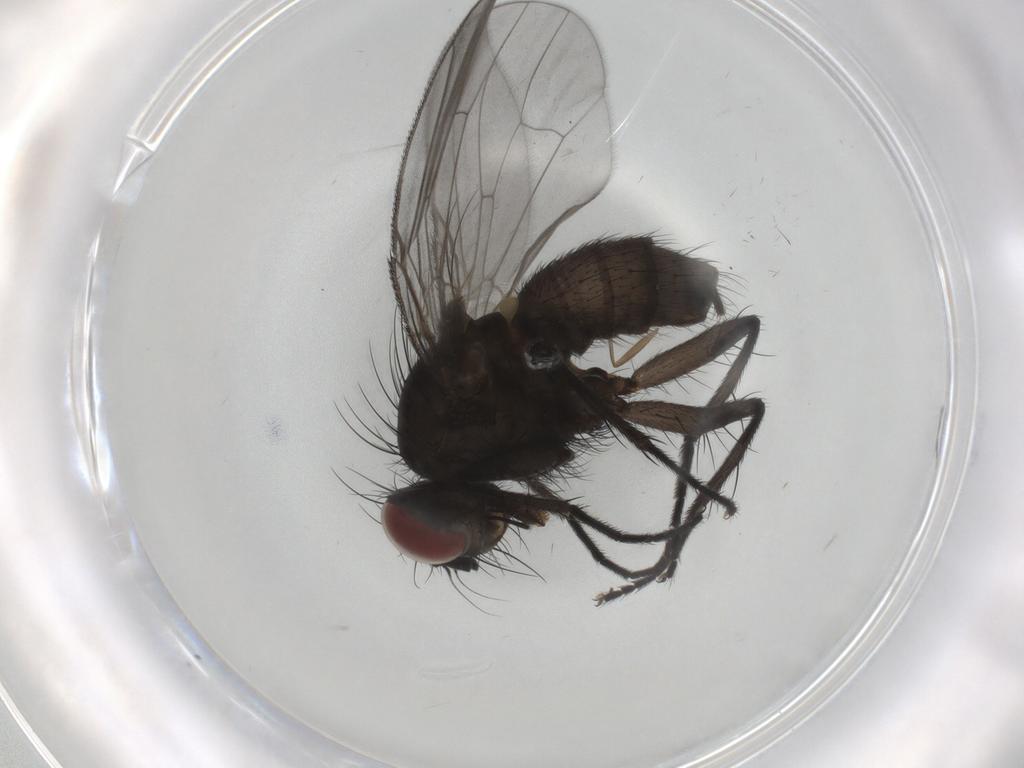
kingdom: Animalia
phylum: Arthropoda
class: Insecta
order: Diptera
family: Muscidae
